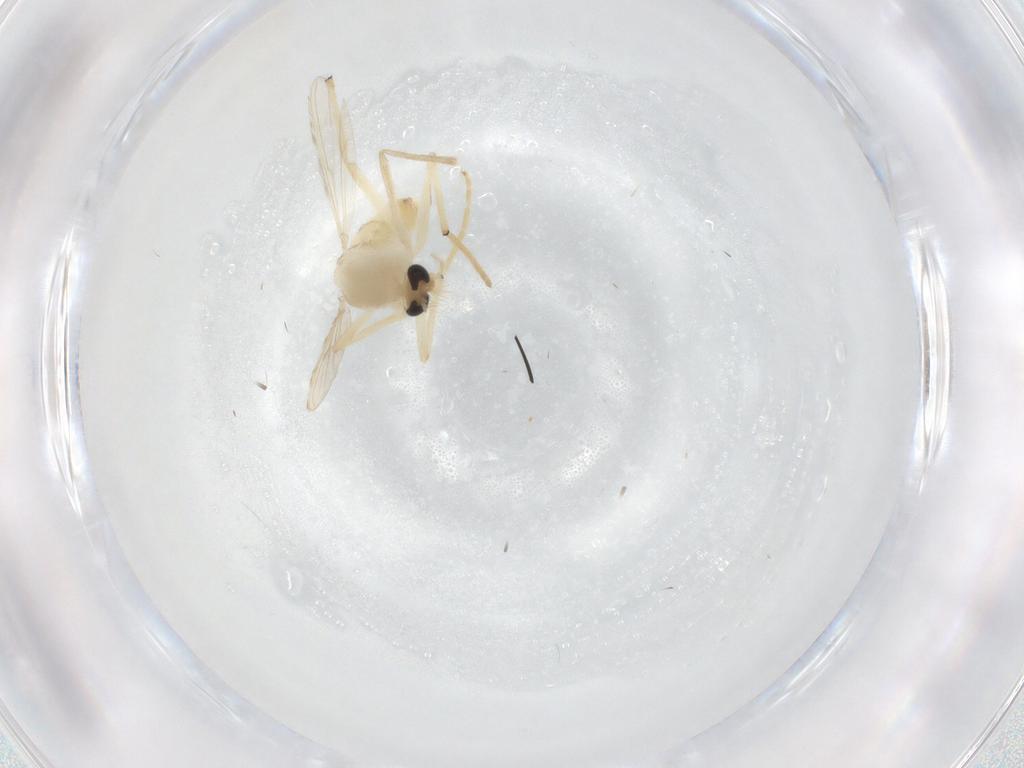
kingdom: Animalia
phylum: Arthropoda
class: Insecta
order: Diptera
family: Chironomidae
